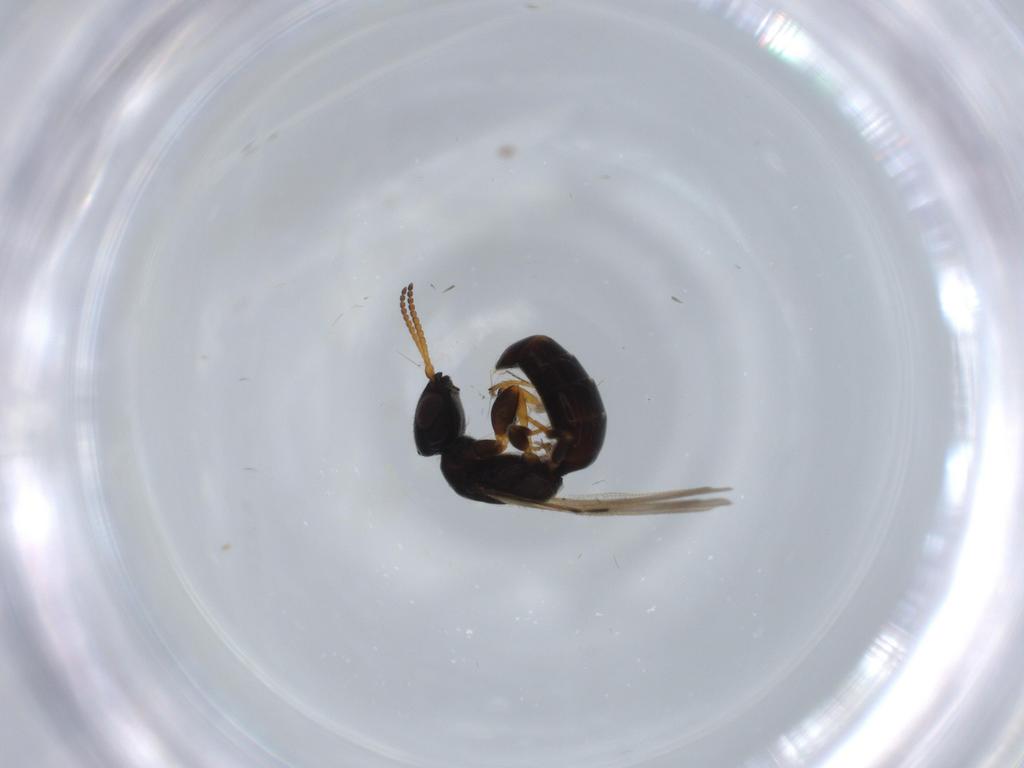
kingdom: Animalia
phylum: Arthropoda
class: Insecta
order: Hymenoptera
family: Bethylidae
